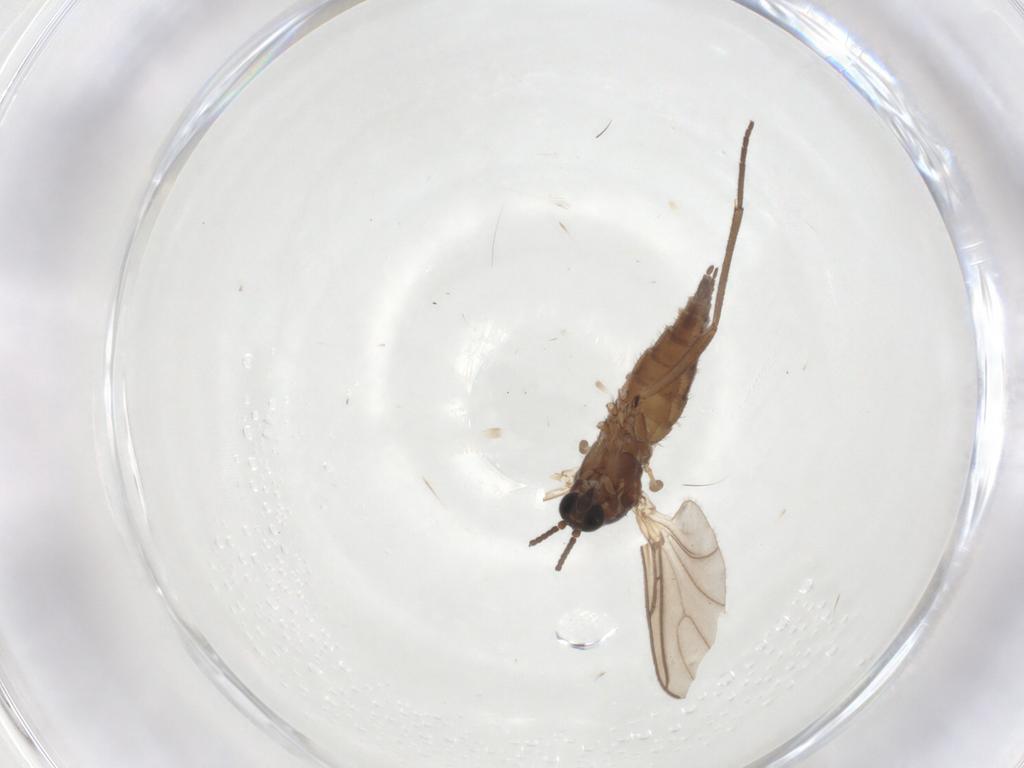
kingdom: Animalia
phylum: Arthropoda
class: Insecta
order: Diptera
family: Sciaridae
